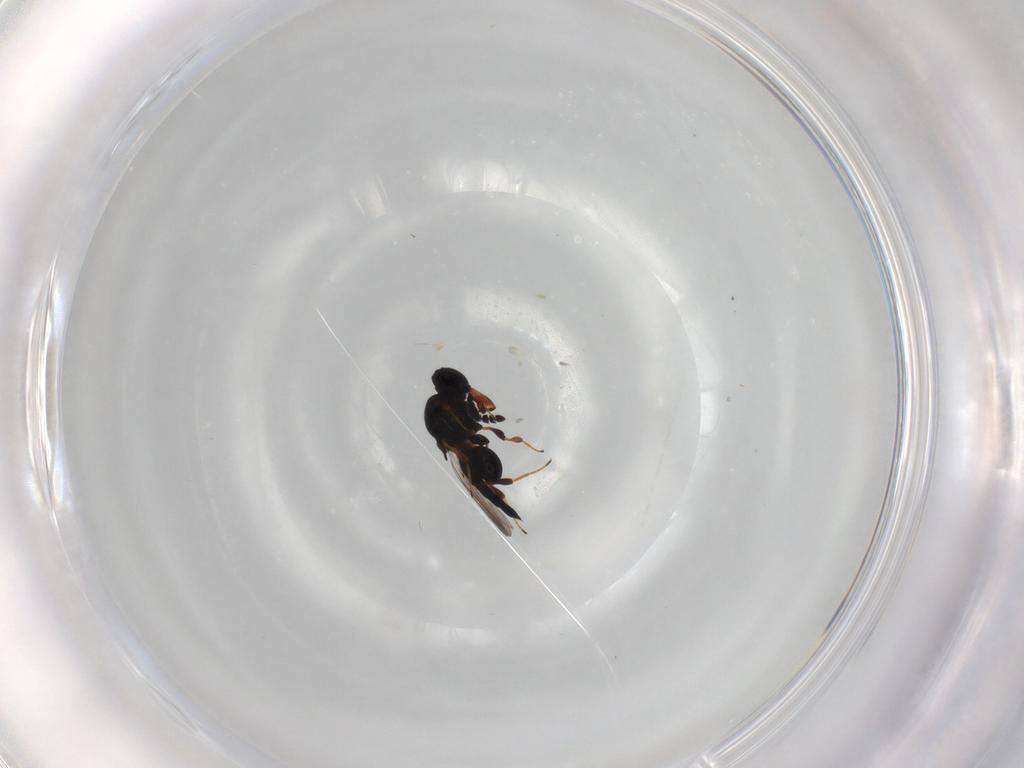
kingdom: Animalia
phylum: Arthropoda
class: Insecta
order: Hymenoptera
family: Dryinidae
